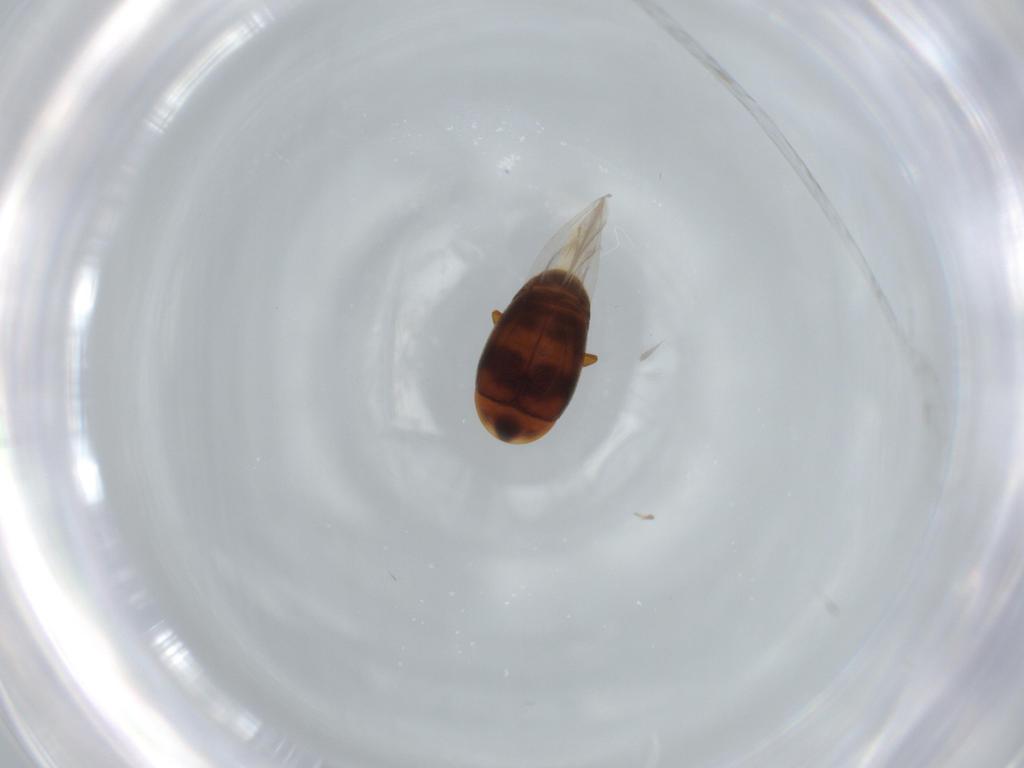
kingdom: Animalia
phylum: Arthropoda
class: Insecta
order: Coleoptera
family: Corylophidae
